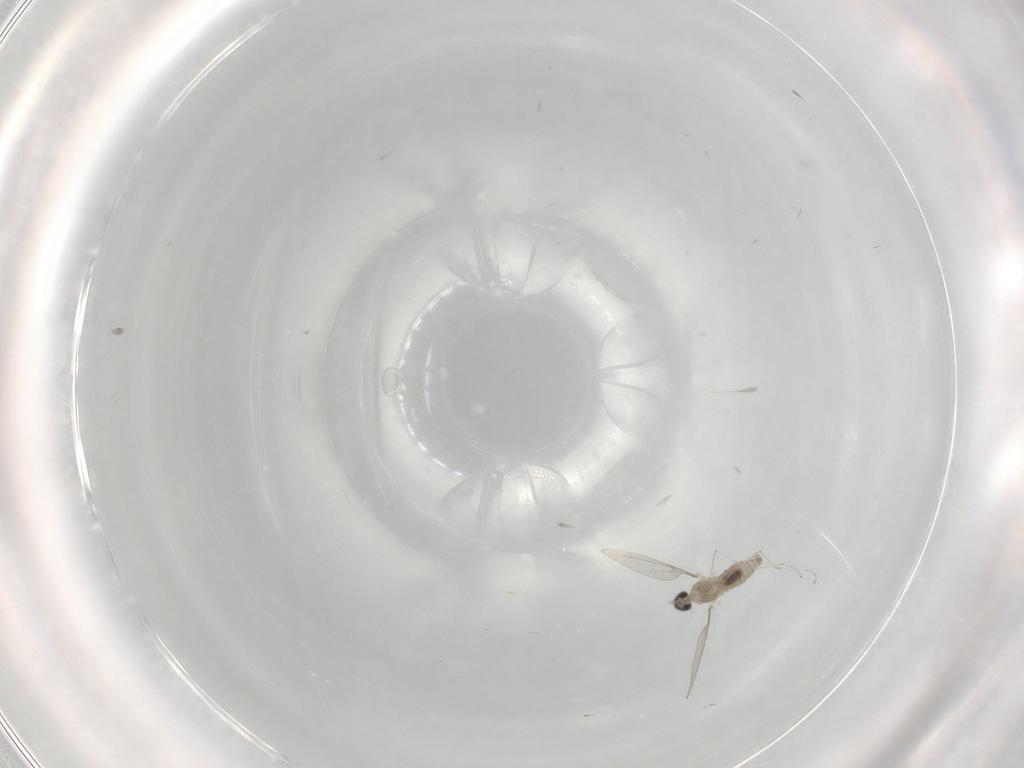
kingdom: Animalia
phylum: Arthropoda
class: Insecta
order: Diptera
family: Cecidomyiidae
